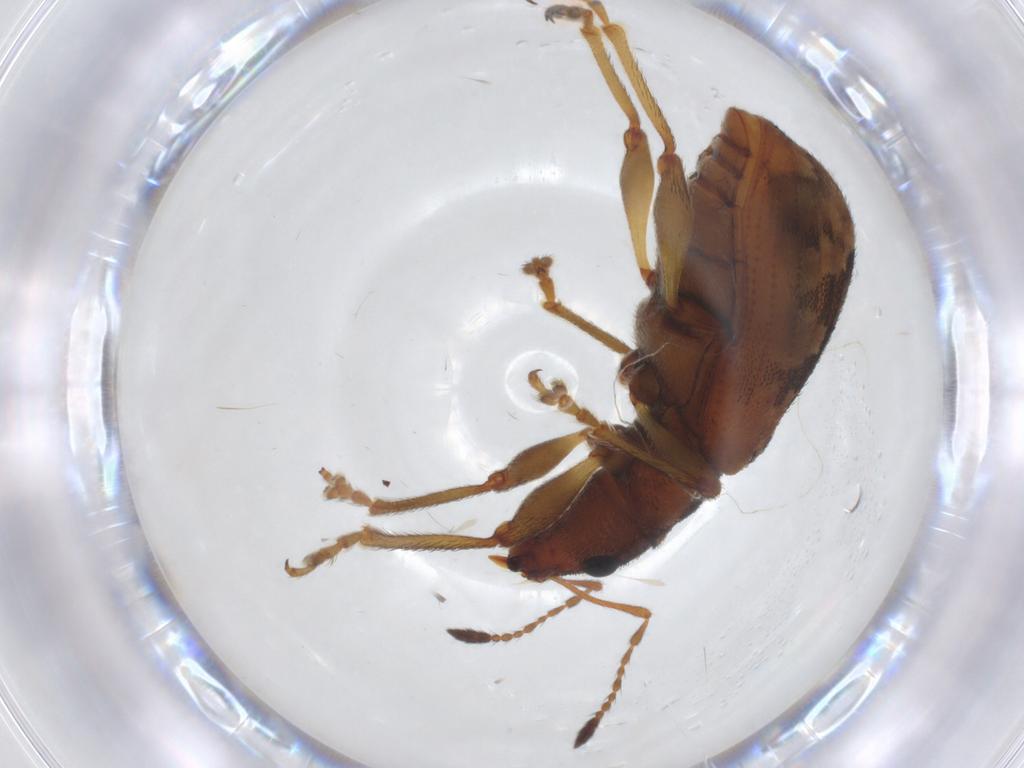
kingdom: Animalia
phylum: Arthropoda
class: Insecta
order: Coleoptera
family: Curculionidae
